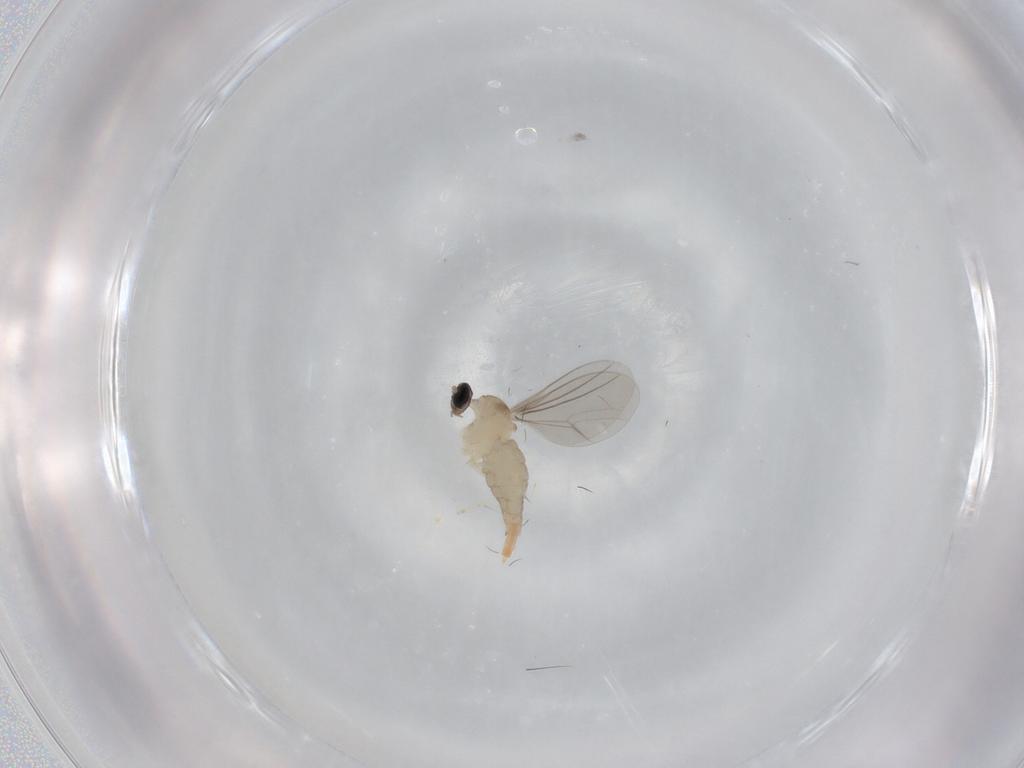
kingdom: Animalia
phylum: Arthropoda
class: Insecta
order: Diptera
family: Cecidomyiidae
